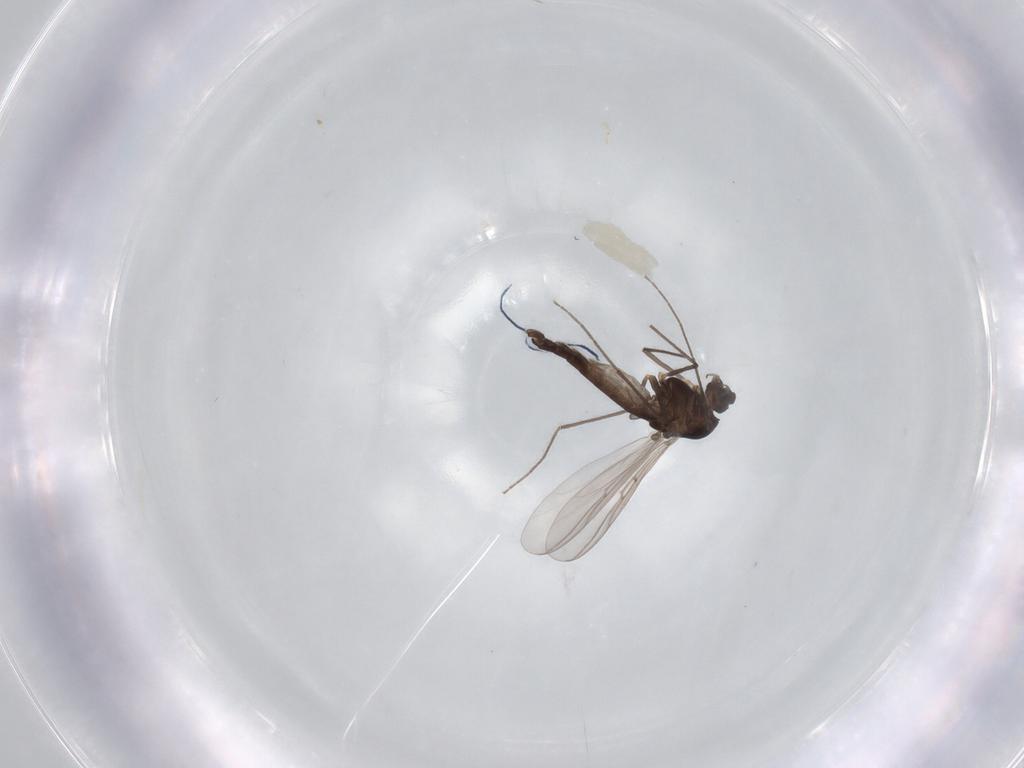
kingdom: Animalia
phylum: Arthropoda
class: Insecta
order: Diptera
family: Chironomidae
